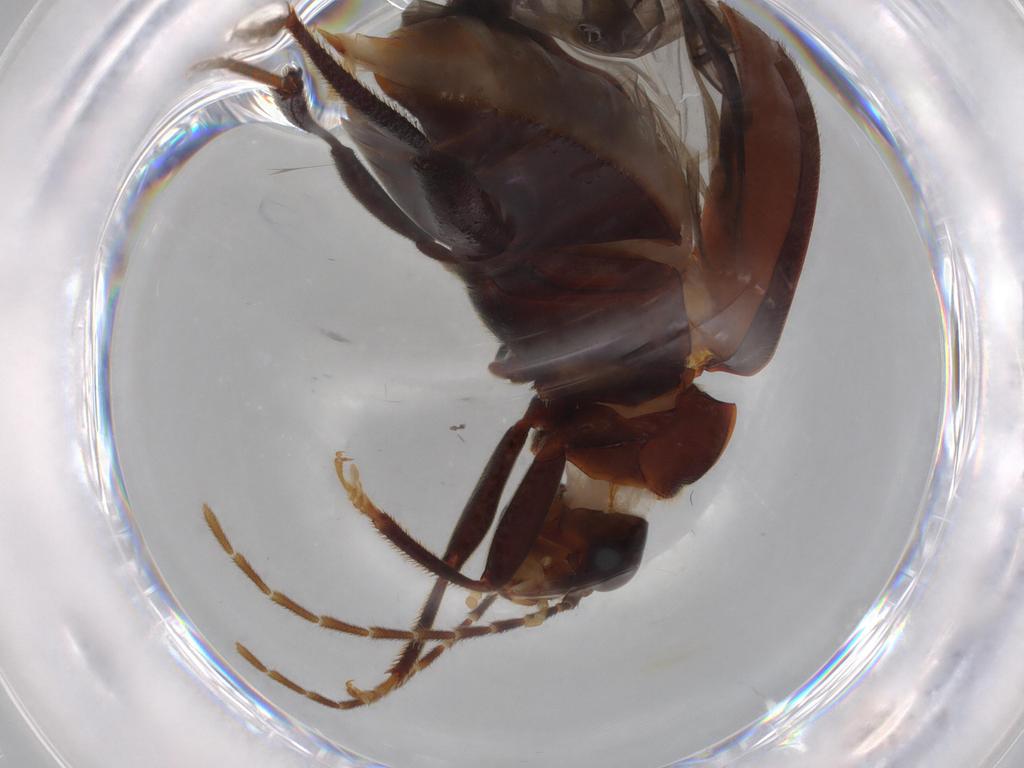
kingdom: Animalia
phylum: Arthropoda
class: Insecta
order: Coleoptera
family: Ptilodactylidae
